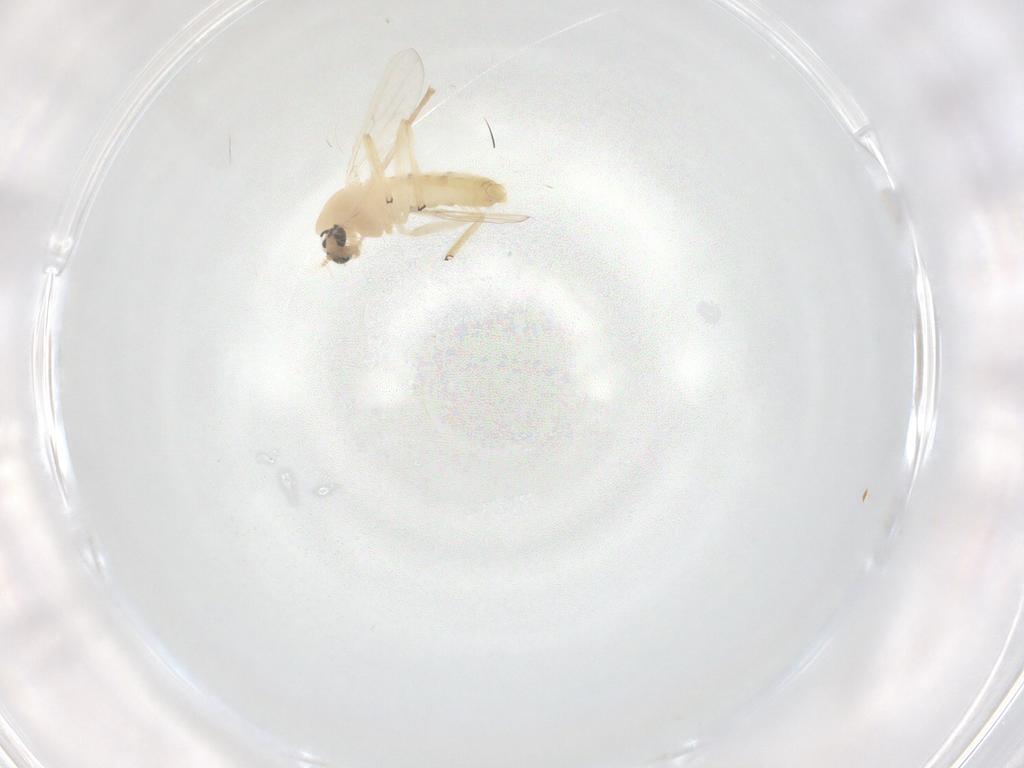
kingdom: Animalia
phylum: Arthropoda
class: Insecta
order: Diptera
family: Chironomidae
